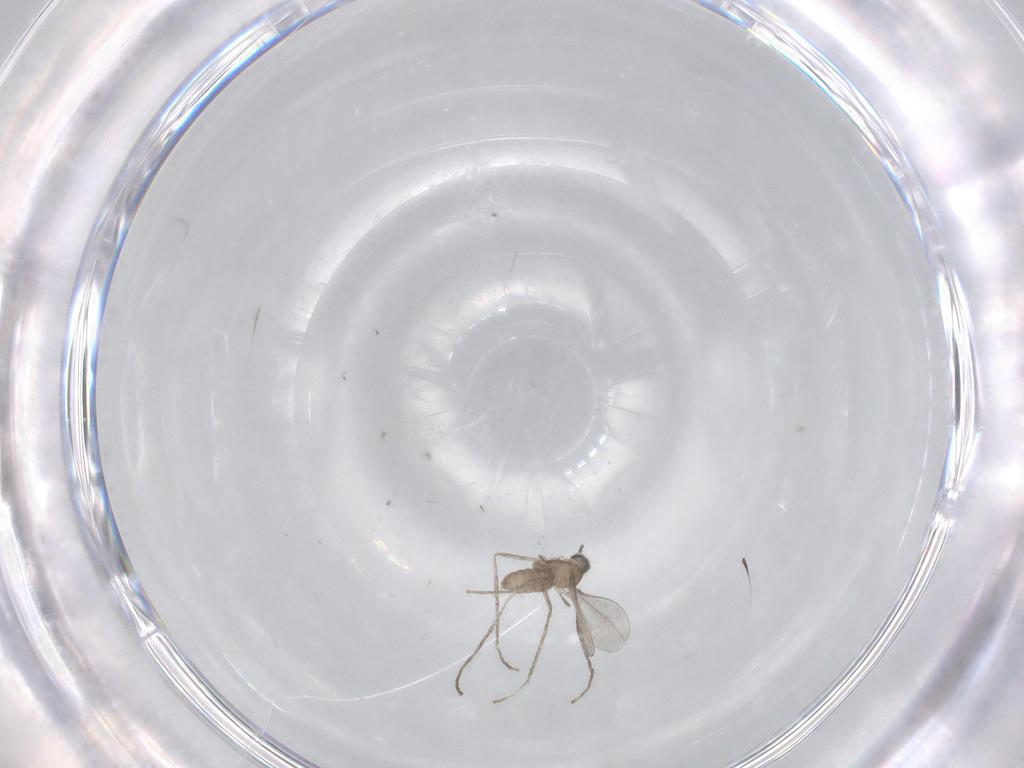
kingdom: Animalia
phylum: Arthropoda
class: Insecta
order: Diptera
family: Cecidomyiidae
